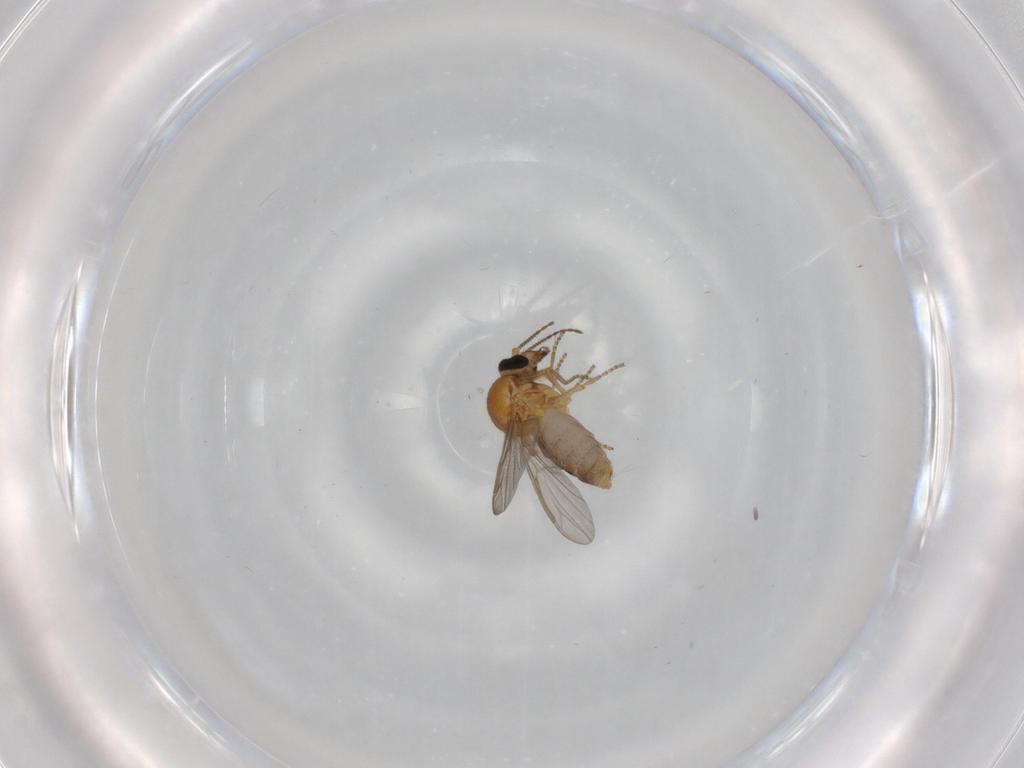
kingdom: Animalia
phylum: Arthropoda
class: Insecta
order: Diptera
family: Ceratopogonidae
